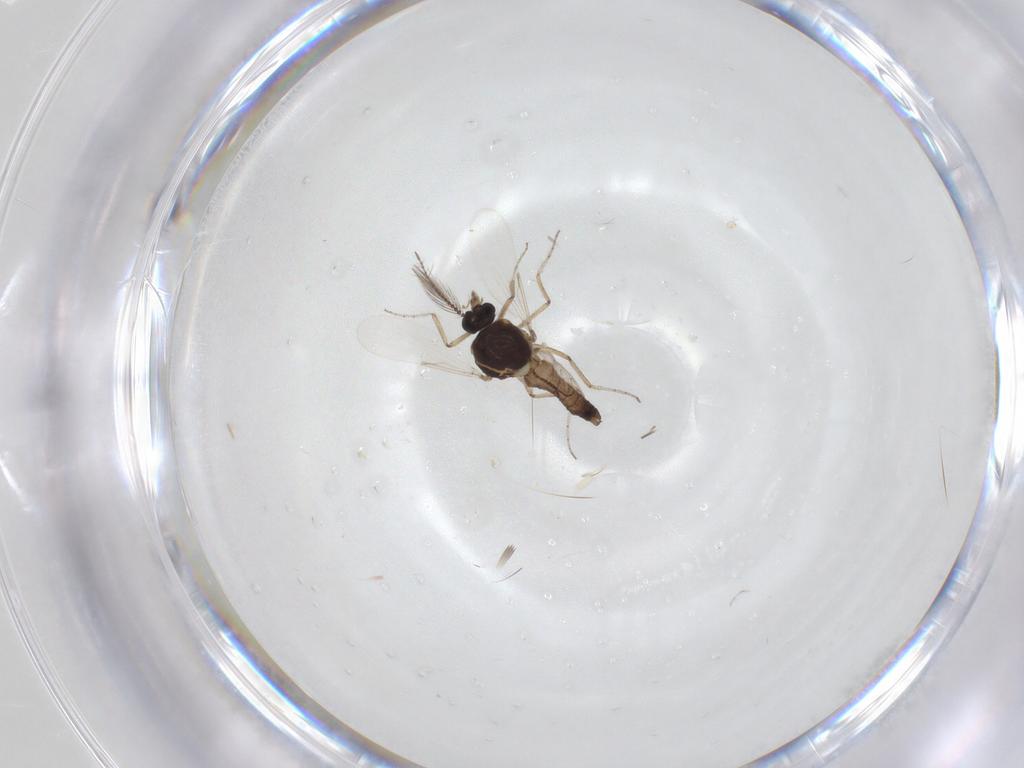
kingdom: Animalia
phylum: Arthropoda
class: Insecta
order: Diptera
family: Ceratopogonidae
